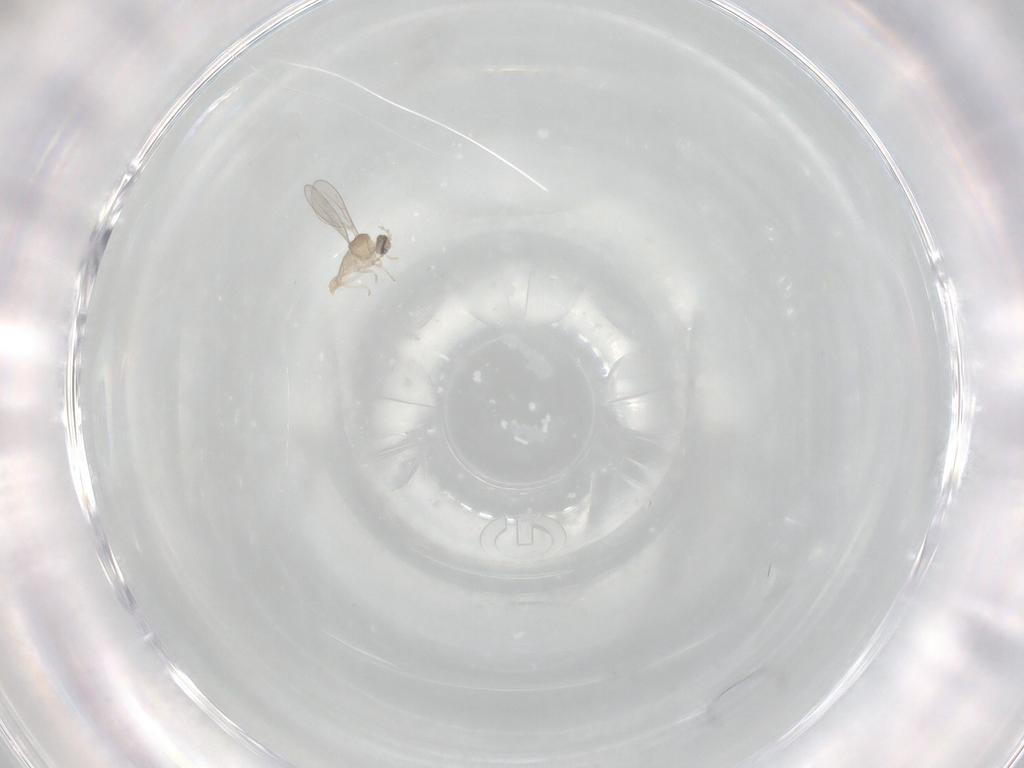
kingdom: Animalia
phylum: Arthropoda
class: Insecta
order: Diptera
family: Cecidomyiidae
